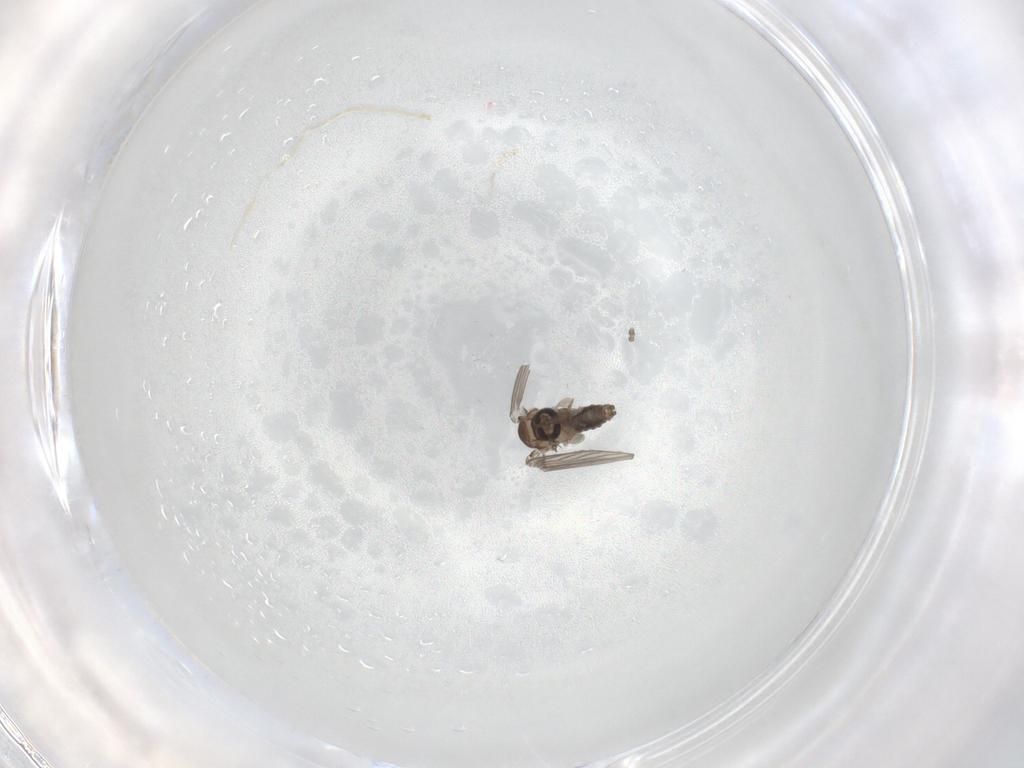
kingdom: Animalia
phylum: Arthropoda
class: Insecta
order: Diptera
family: Psychodidae
